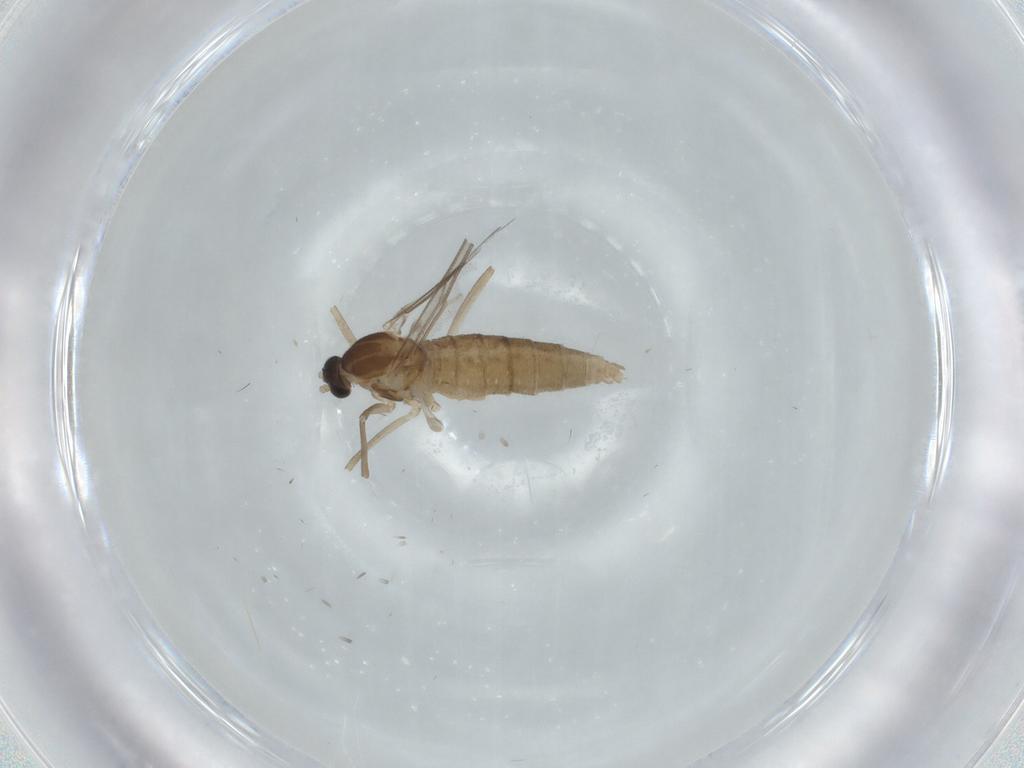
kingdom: Animalia
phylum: Arthropoda
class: Insecta
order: Diptera
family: Cecidomyiidae
